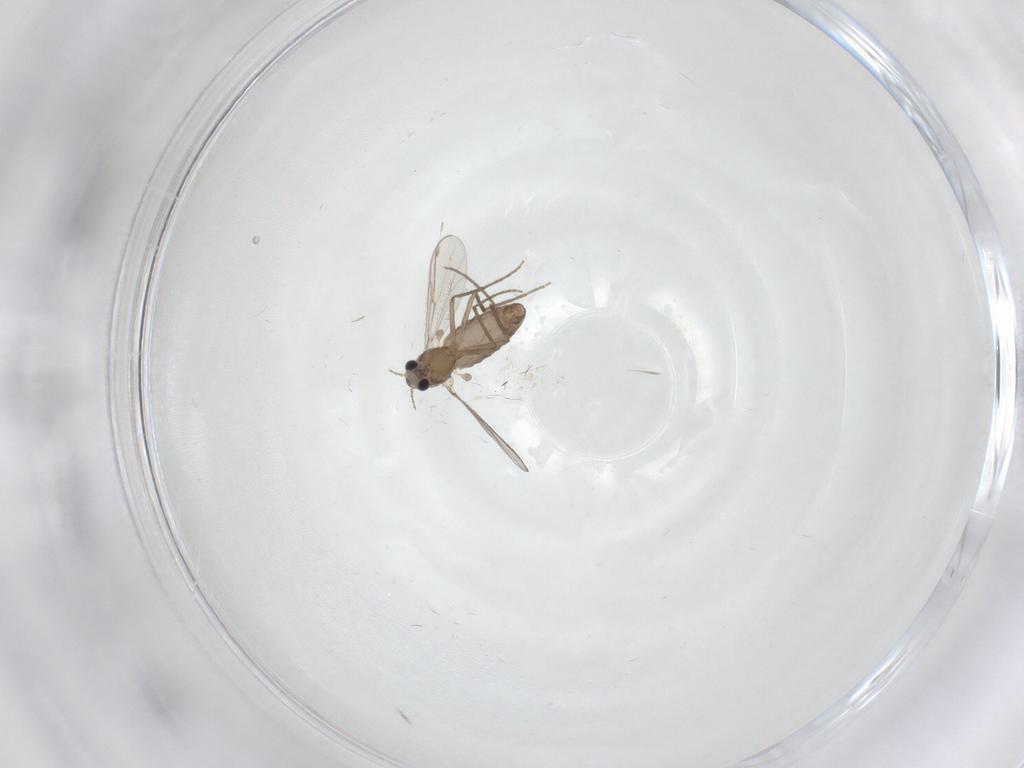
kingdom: Animalia
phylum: Arthropoda
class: Insecta
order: Diptera
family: Chironomidae
